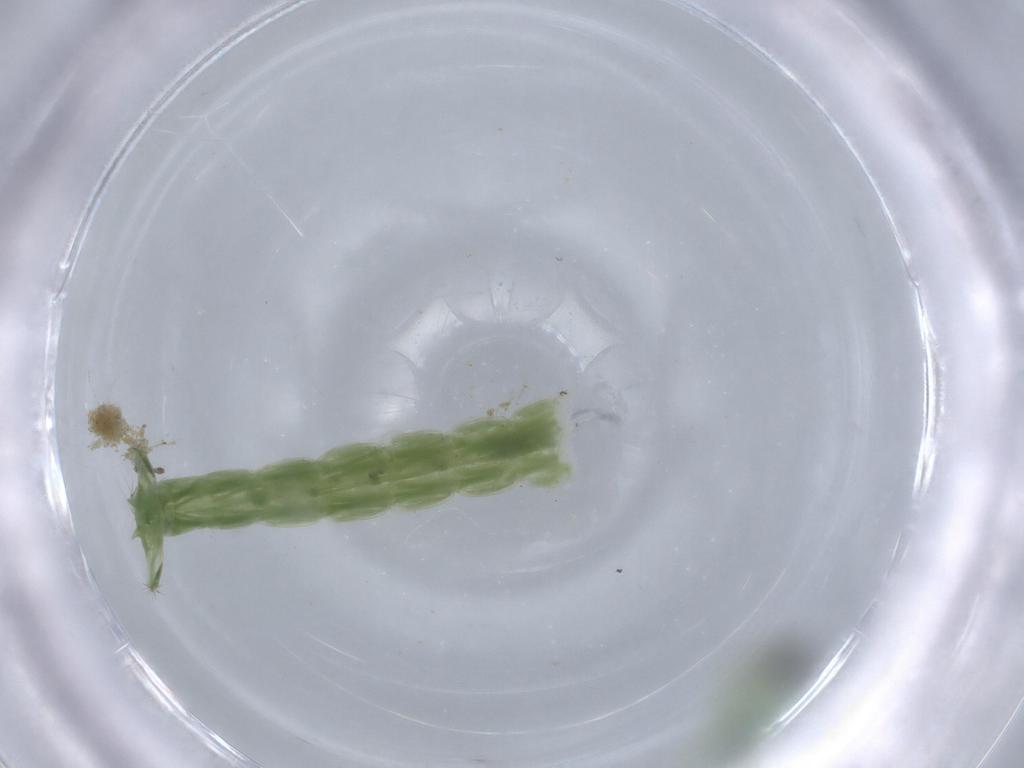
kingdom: Animalia
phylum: Arthropoda
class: Insecta
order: Diptera
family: Chironomidae
